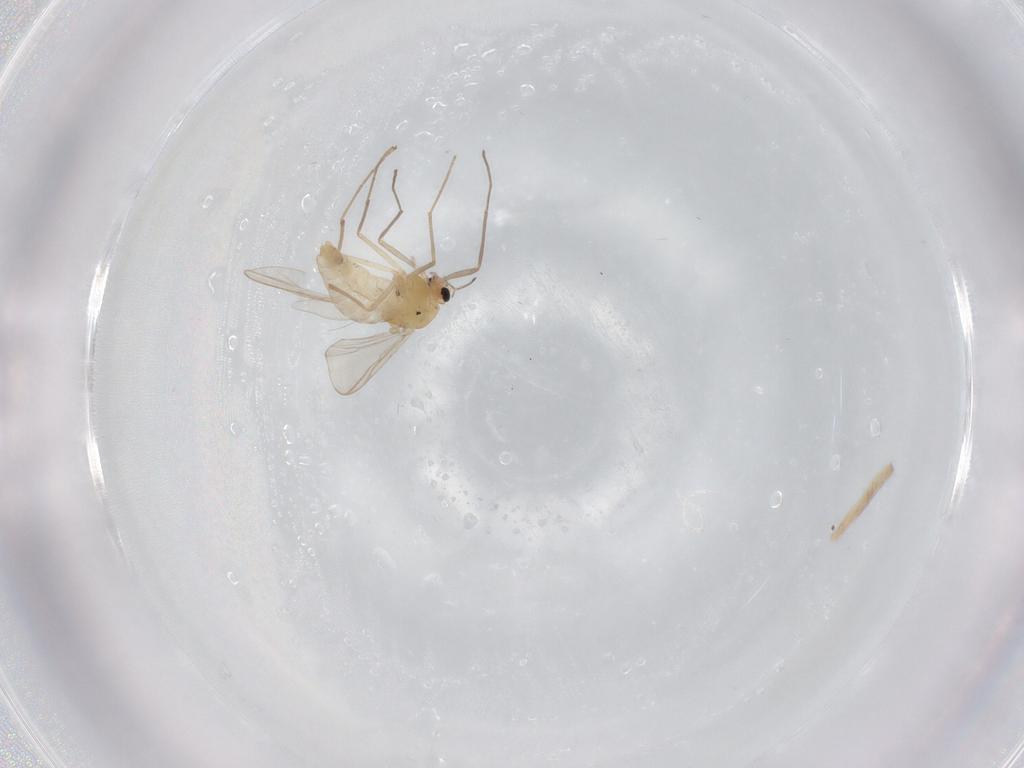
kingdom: Animalia
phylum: Arthropoda
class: Insecta
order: Diptera
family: Chironomidae
